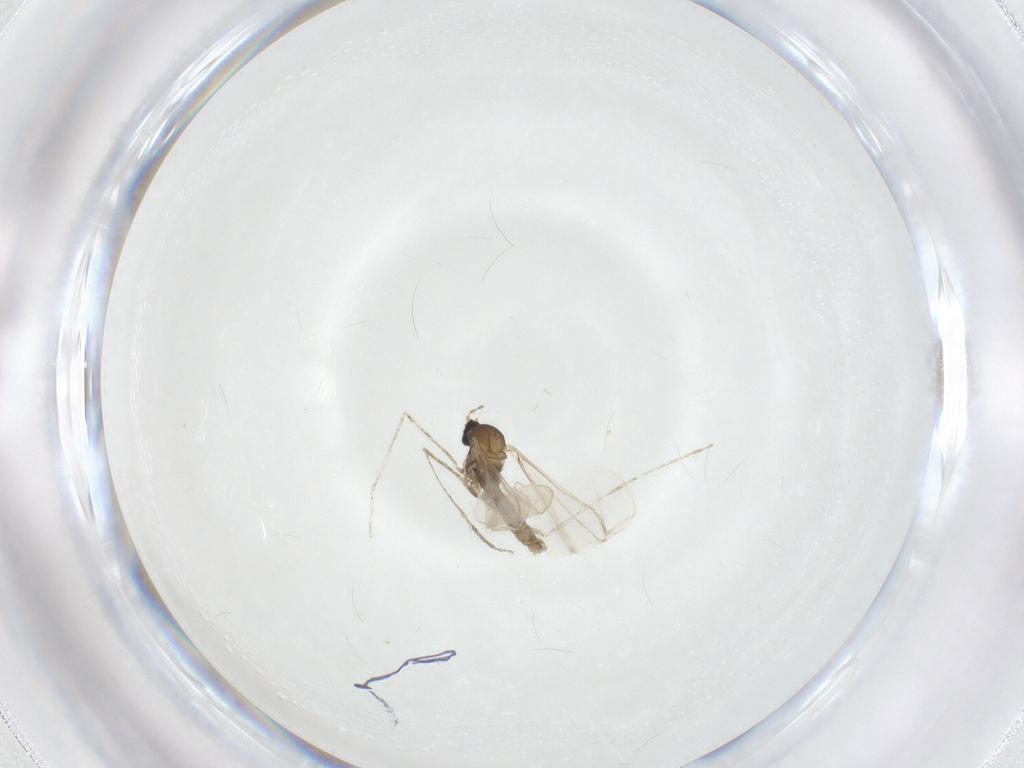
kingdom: Animalia
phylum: Arthropoda
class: Insecta
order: Diptera
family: Cecidomyiidae
